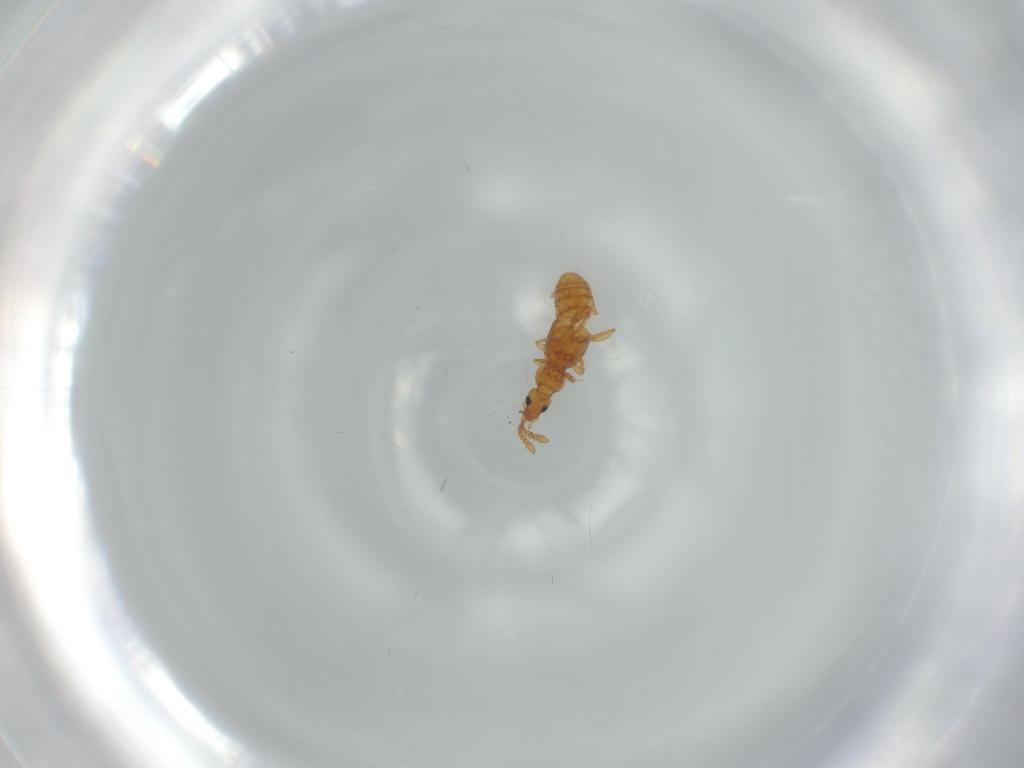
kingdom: Animalia
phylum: Arthropoda
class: Insecta
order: Coleoptera
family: Staphylinidae
